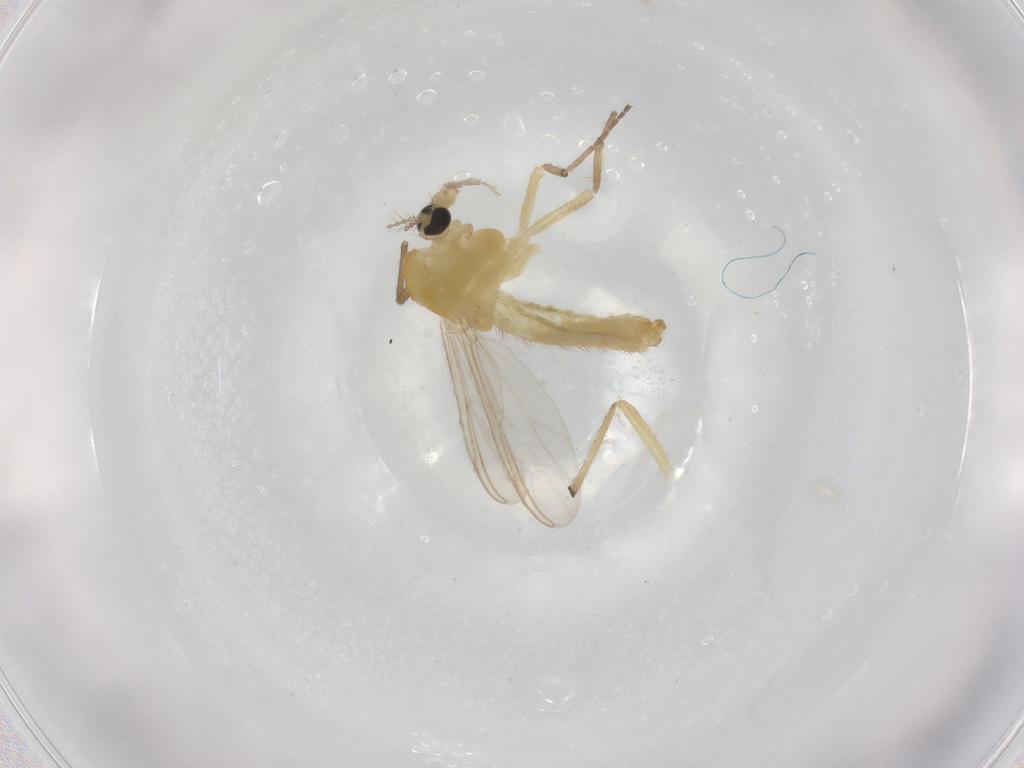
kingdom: Animalia
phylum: Arthropoda
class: Insecta
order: Diptera
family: Chironomidae
